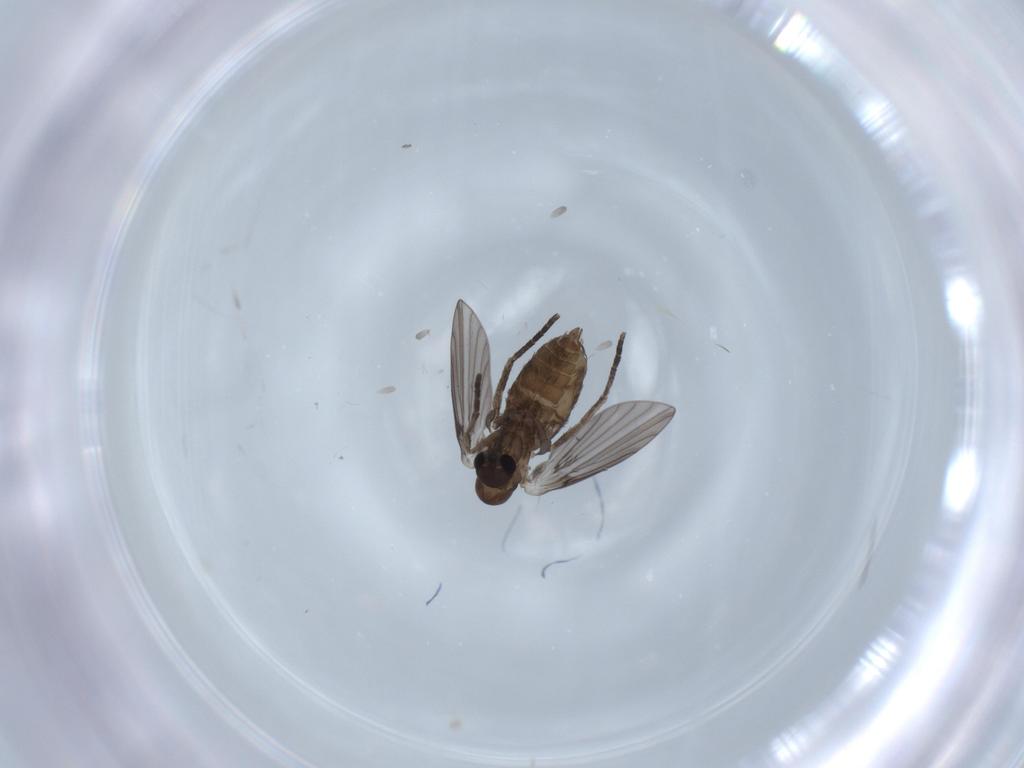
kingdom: Animalia
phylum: Arthropoda
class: Insecta
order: Diptera
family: Psychodidae
